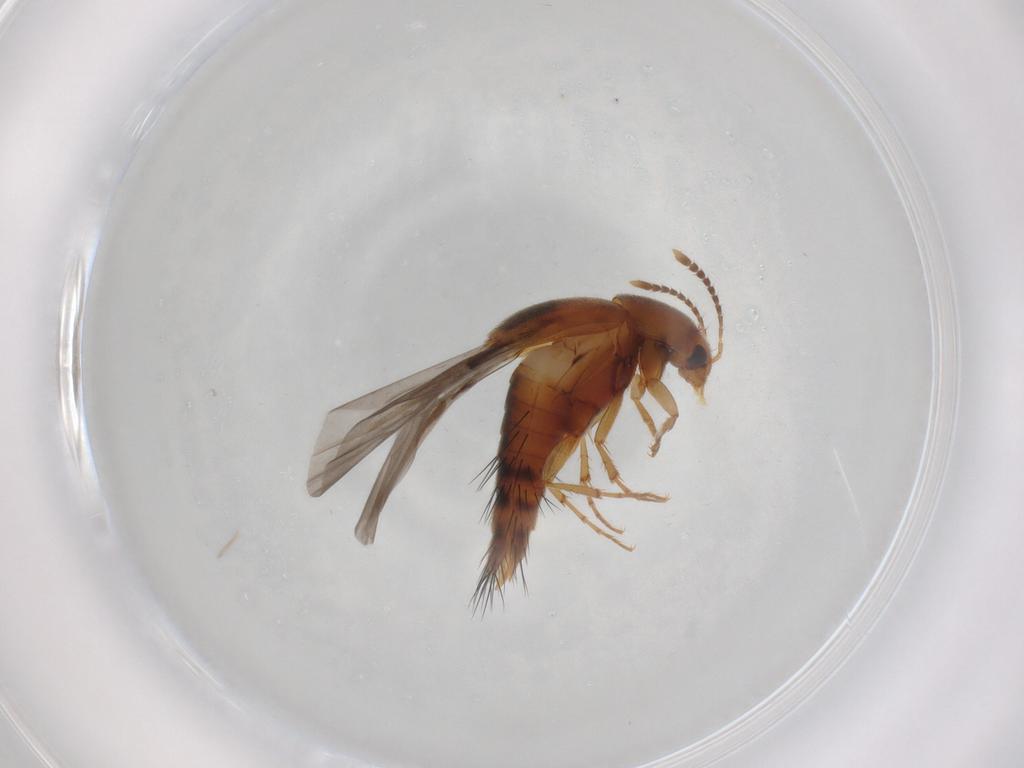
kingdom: Animalia
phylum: Arthropoda
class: Insecta
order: Coleoptera
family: Staphylinidae
